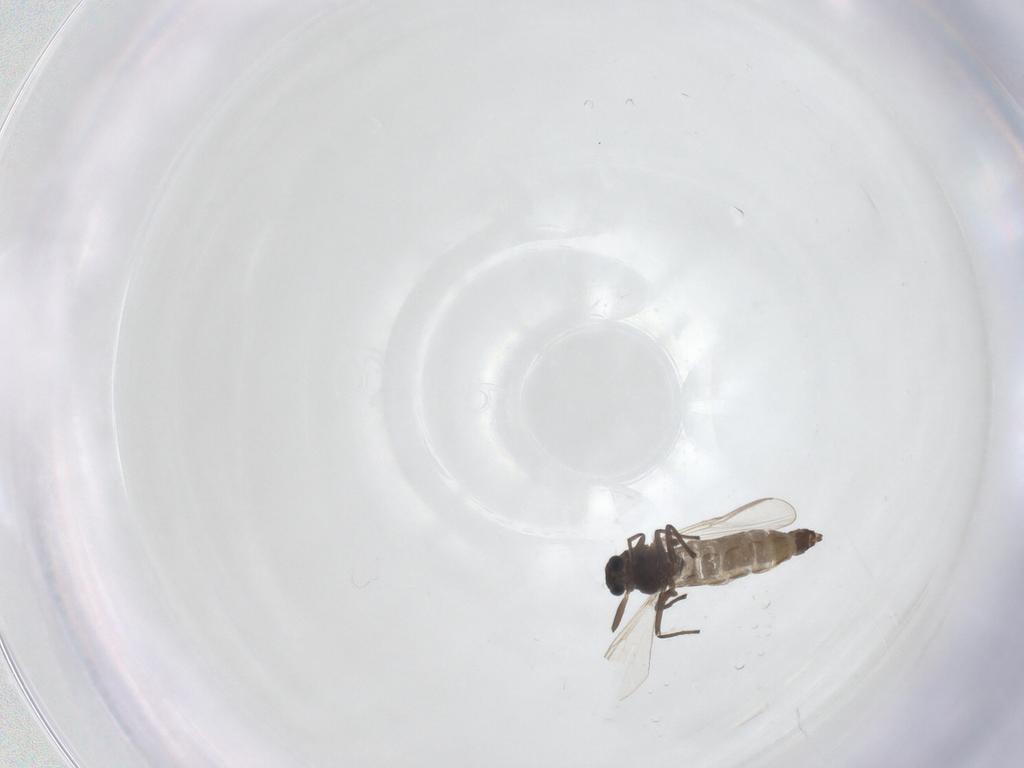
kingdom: Animalia
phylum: Arthropoda
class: Insecta
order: Diptera
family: Chironomidae
